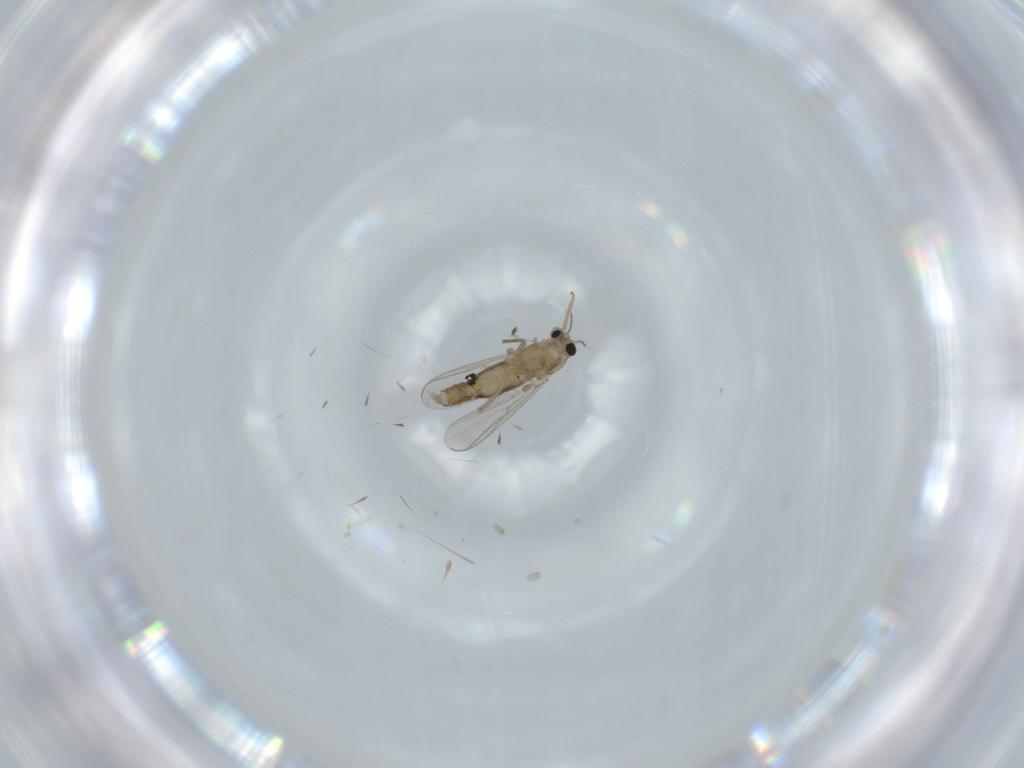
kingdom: Animalia
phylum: Arthropoda
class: Insecta
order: Diptera
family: Chironomidae
